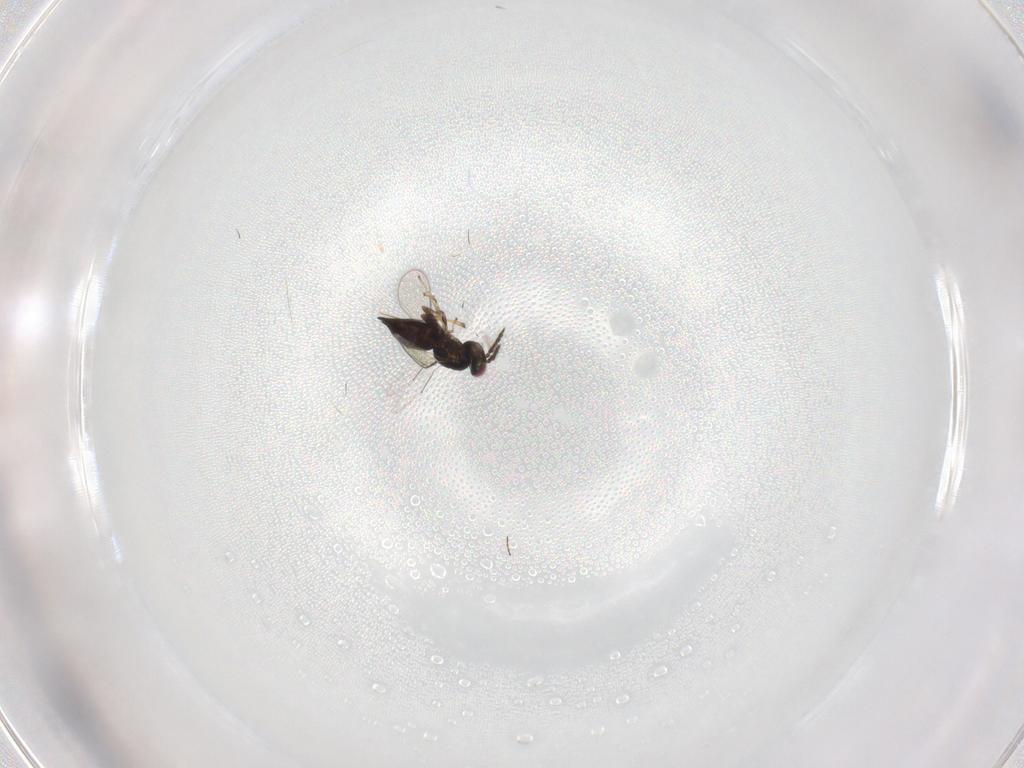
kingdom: Animalia
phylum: Arthropoda
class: Insecta
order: Hymenoptera
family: Eulophidae
